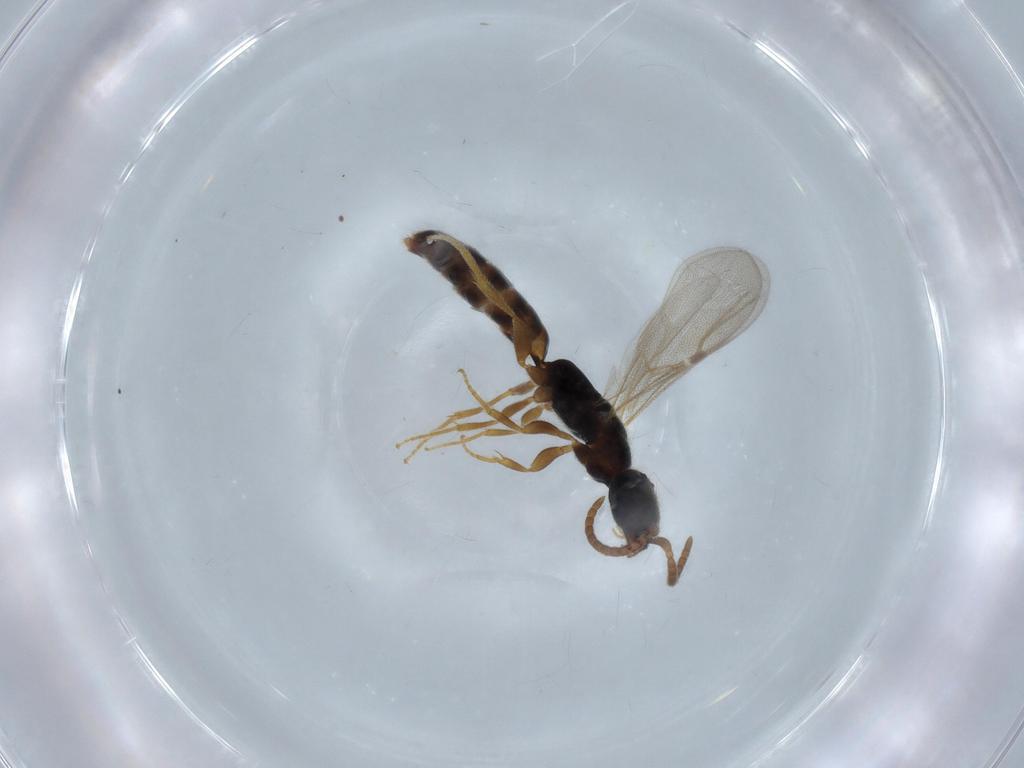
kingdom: Animalia
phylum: Arthropoda
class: Insecta
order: Hymenoptera
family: Bethylidae
